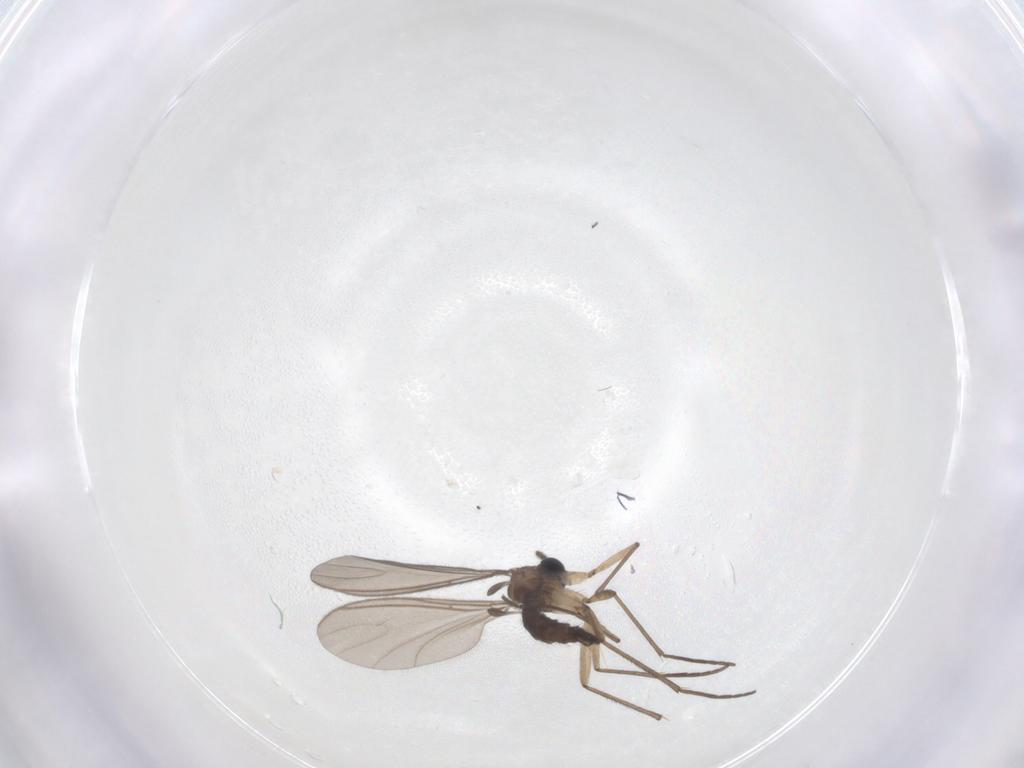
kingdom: Animalia
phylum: Arthropoda
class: Insecta
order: Diptera
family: Sciaridae
